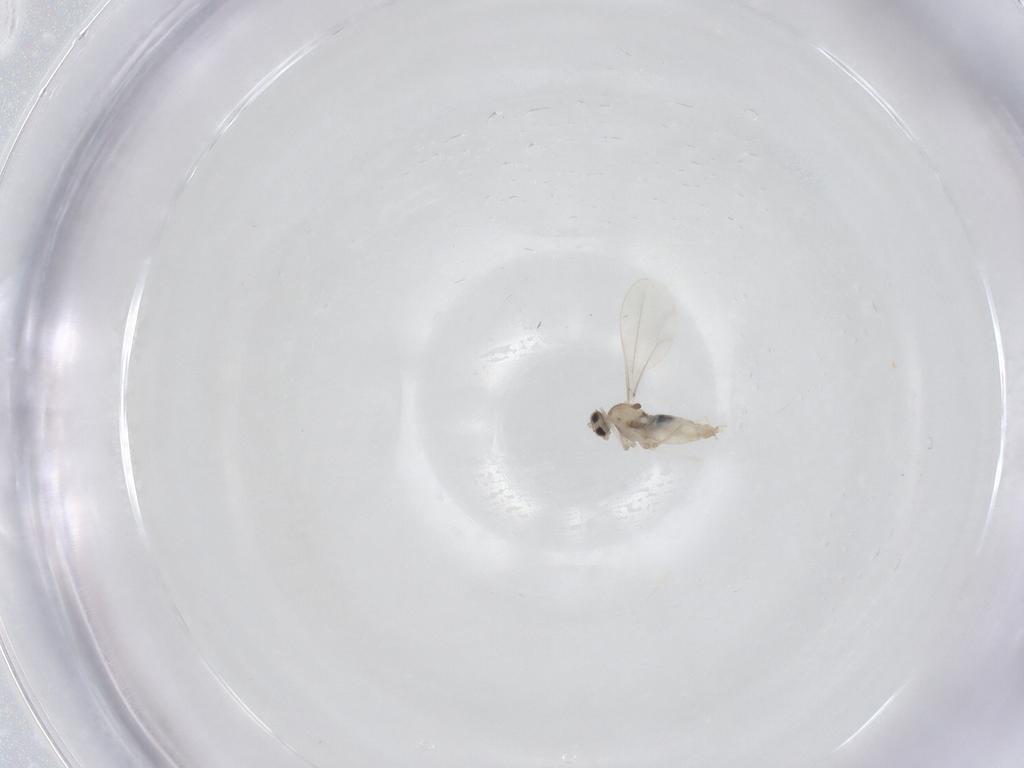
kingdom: Animalia
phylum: Arthropoda
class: Insecta
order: Diptera
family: Cecidomyiidae
